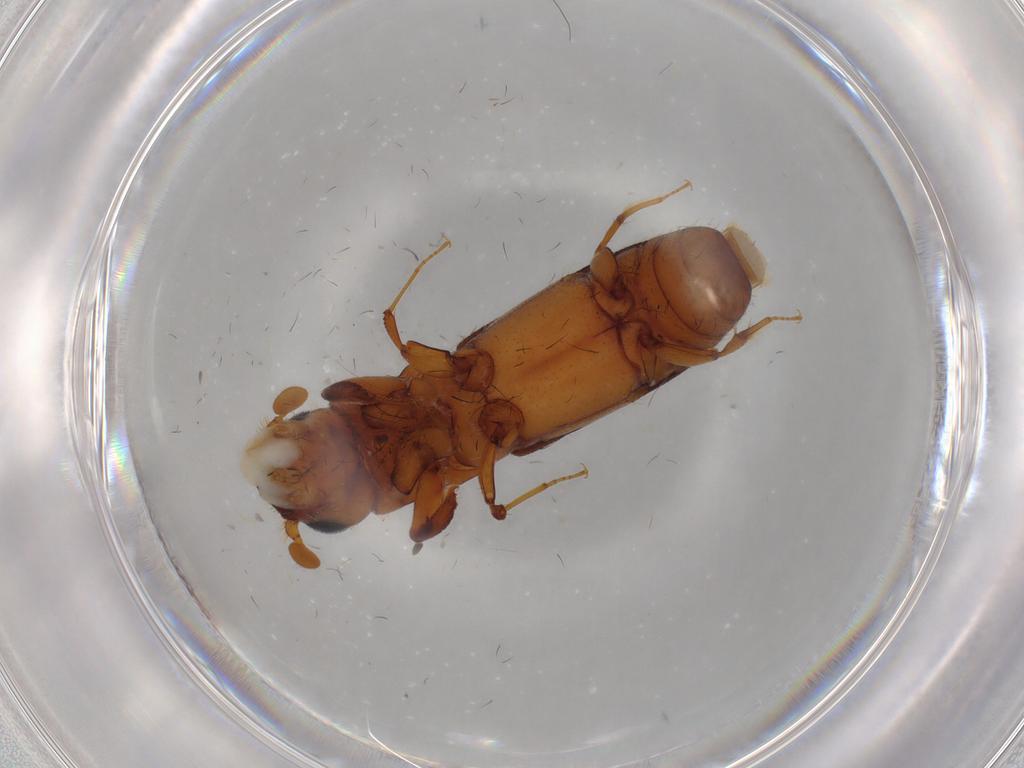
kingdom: Animalia
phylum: Arthropoda
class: Insecta
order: Coleoptera
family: Curculionidae
